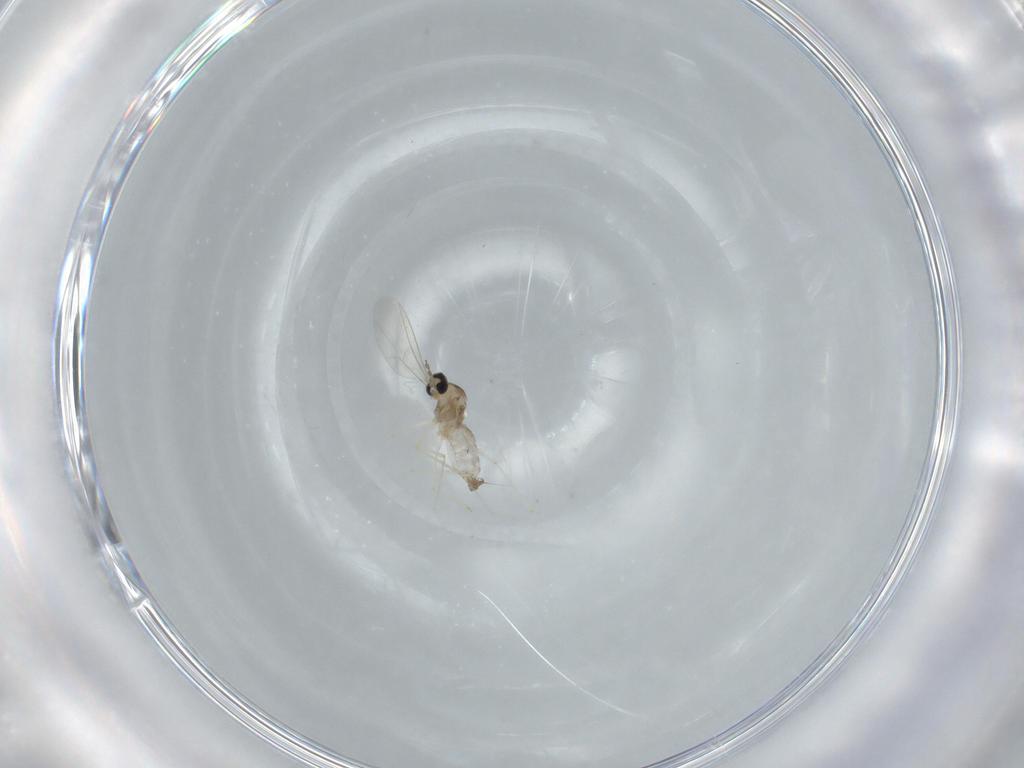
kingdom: Animalia
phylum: Arthropoda
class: Insecta
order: Diptera
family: Cecidomyiidae
